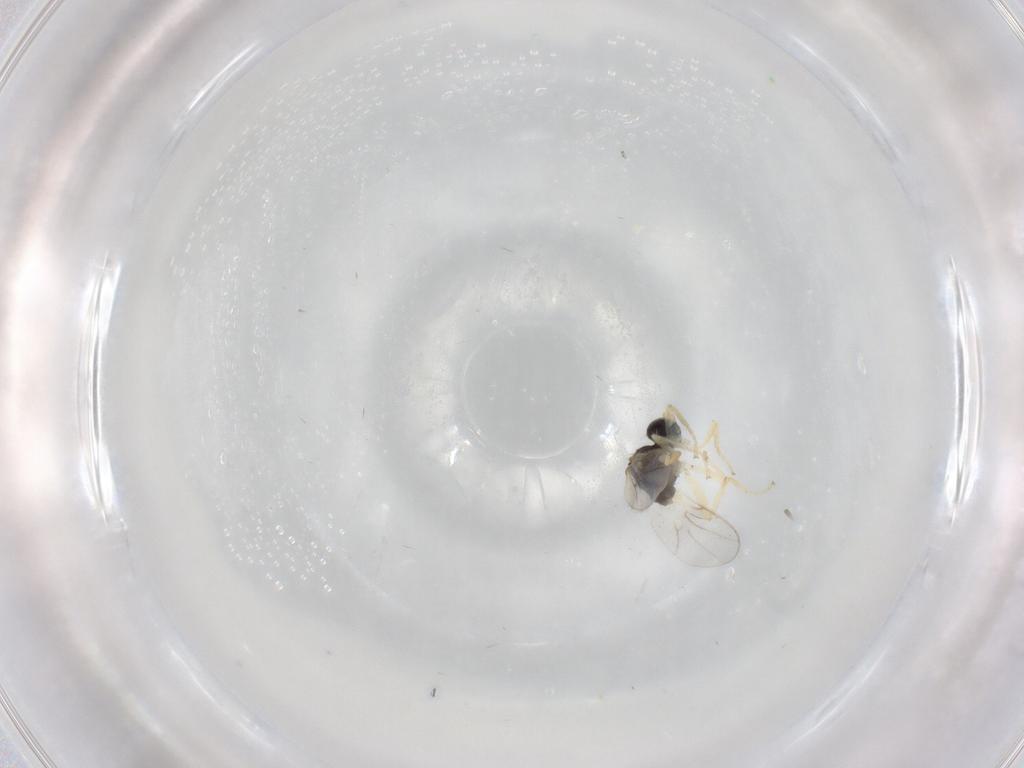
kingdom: Animalia
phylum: Arthropoda
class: Insecta
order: Diptera
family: Hybotidae
